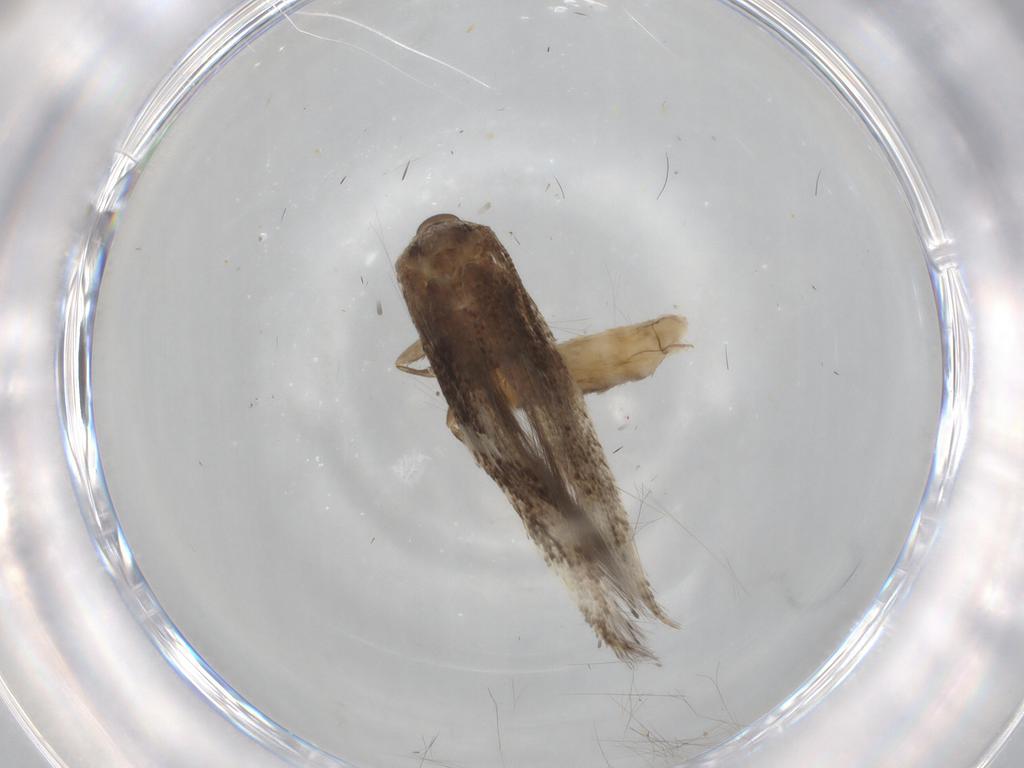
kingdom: Animalia
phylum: Arthropoda
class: Insecta
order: Lepidoptera
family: Elachistidae
